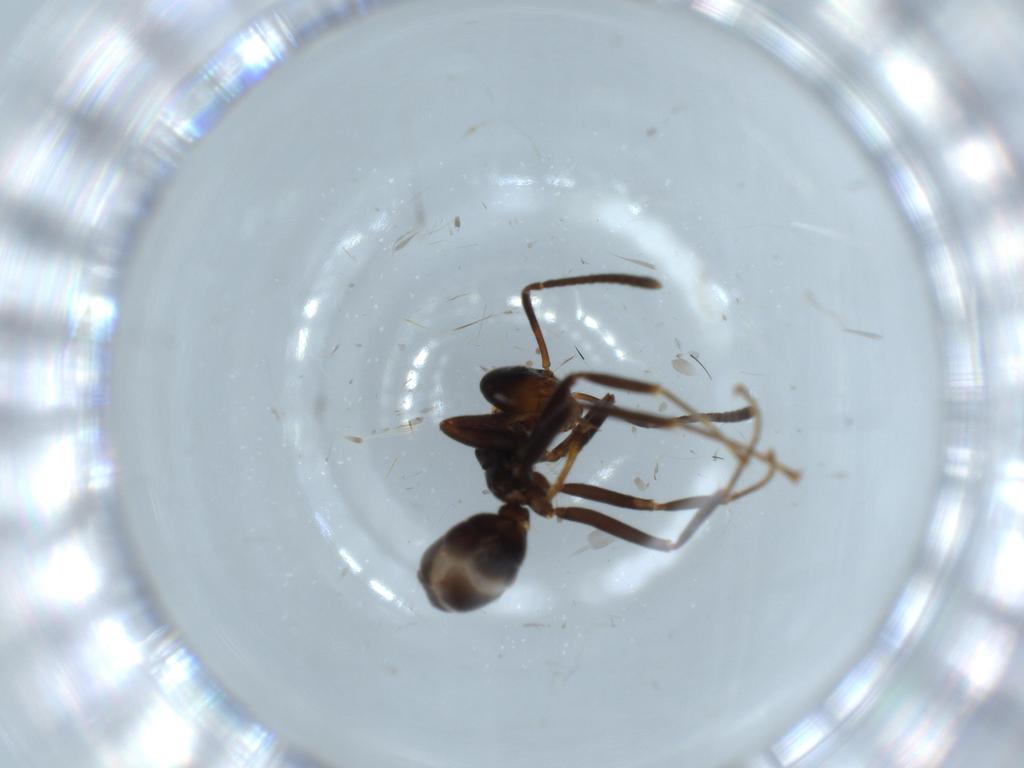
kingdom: Animalia
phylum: Arthropoda
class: Insecta
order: Hymenoptera
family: Formicidae
